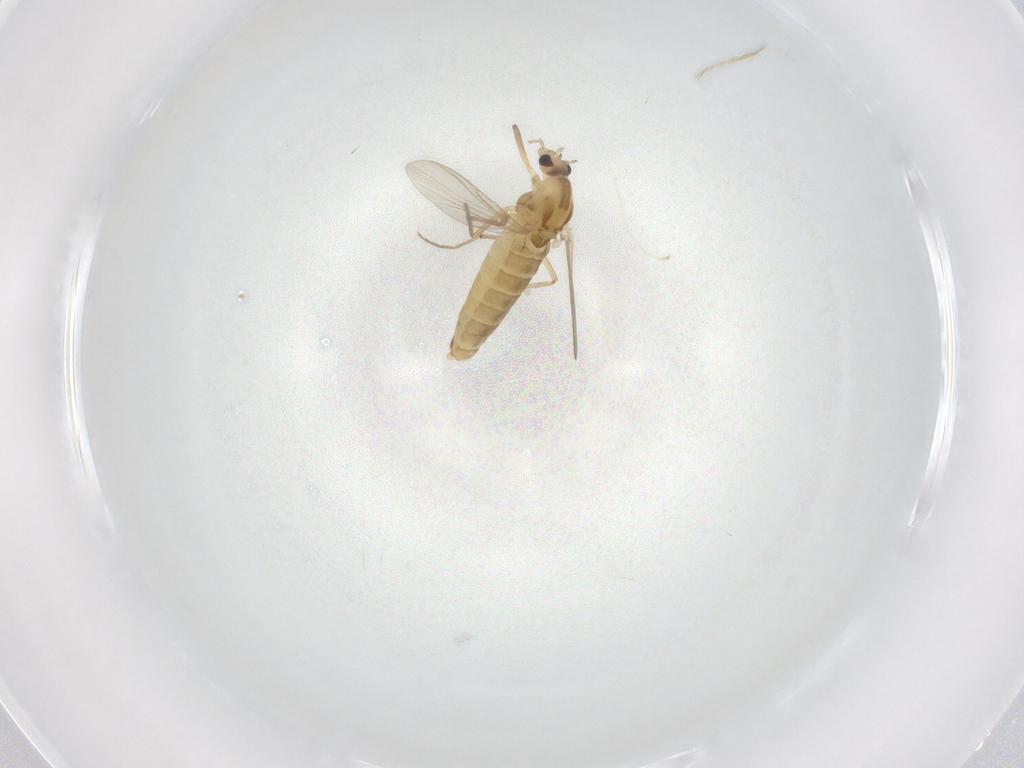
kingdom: Animalia
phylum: Arthropoda
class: Insecta
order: Diptera
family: Chironomidae
